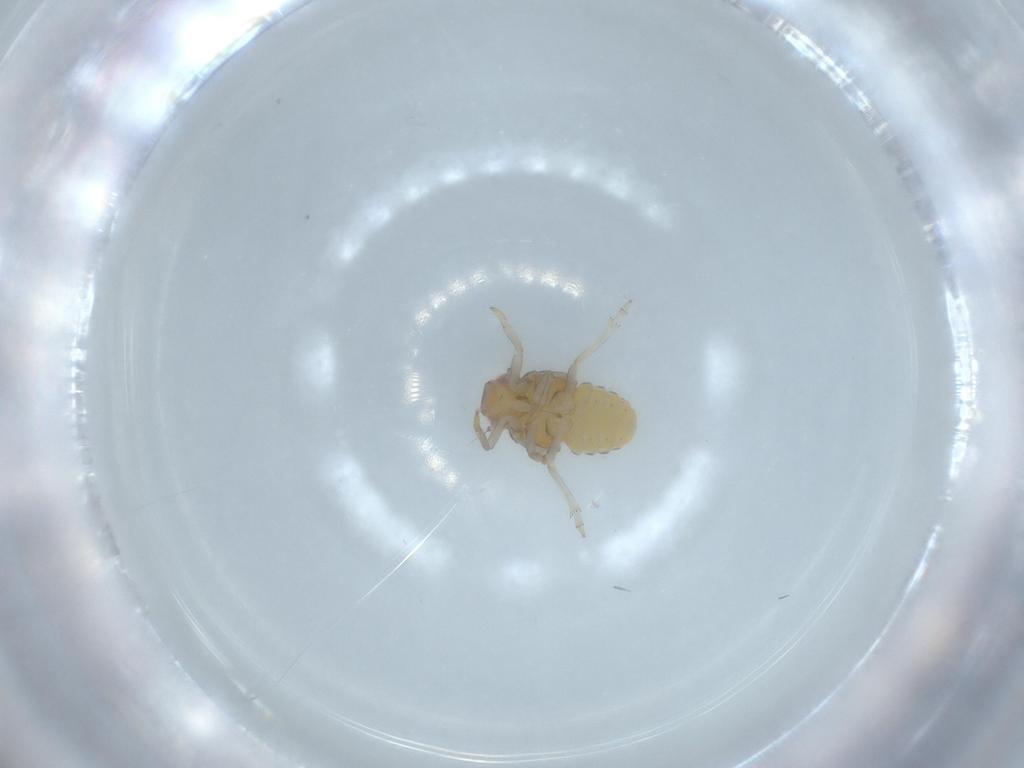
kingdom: Animalia
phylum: Arthropoda
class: Insecta
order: Hemiptera
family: Issidae
